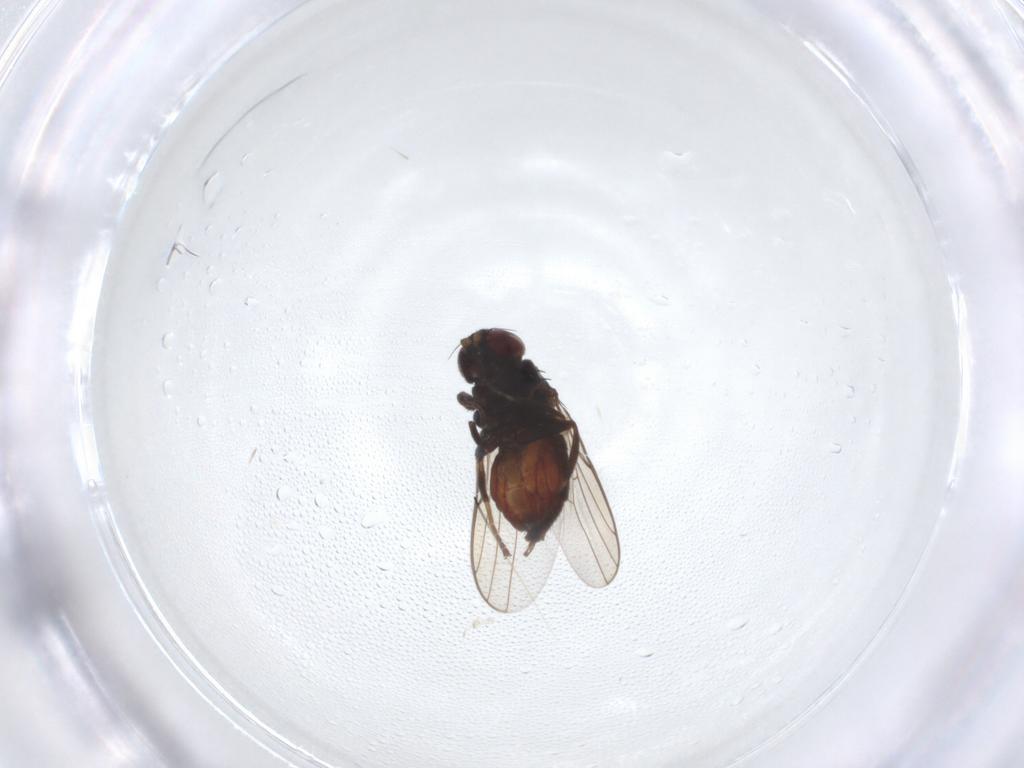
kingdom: Animalia
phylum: Arthropoda
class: Insecta
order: Diptera
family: Chloropidae
